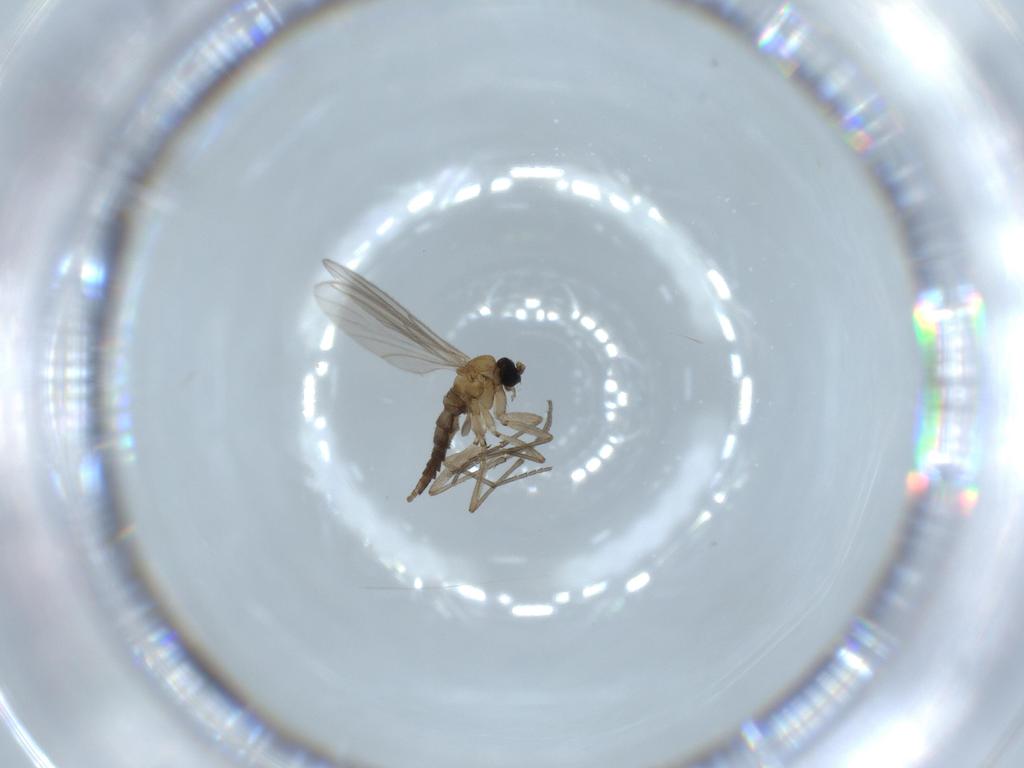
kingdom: Animalia
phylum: Arthropoda
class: Insecta
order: Diptera
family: Sciaridae
